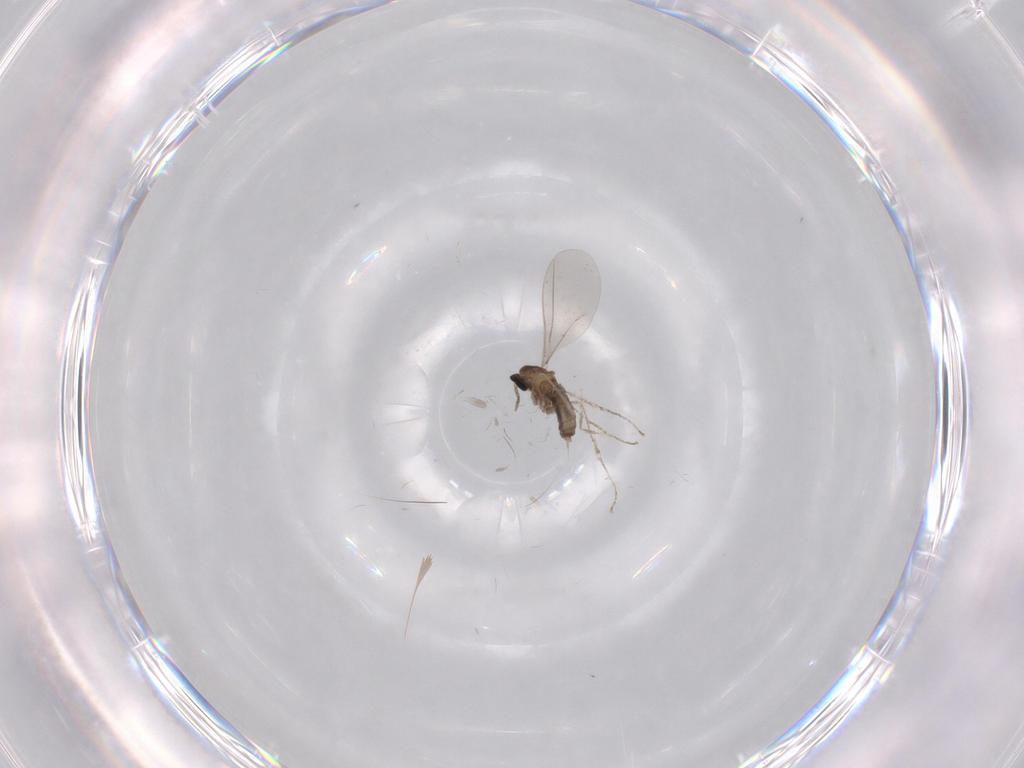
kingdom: Animalia
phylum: Arthropoda
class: Insecta
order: Diptera
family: Cecidomyiidae
